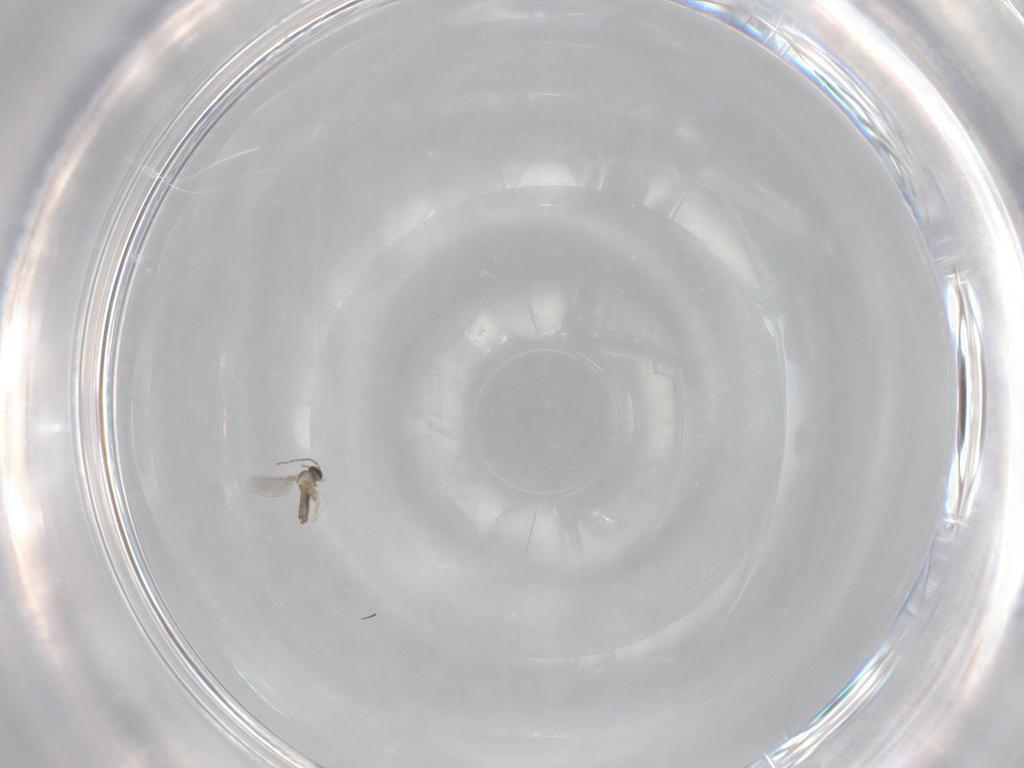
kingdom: Animalia
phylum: Arthropoda
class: Insecta
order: Diptera
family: Cecidomyiidae
